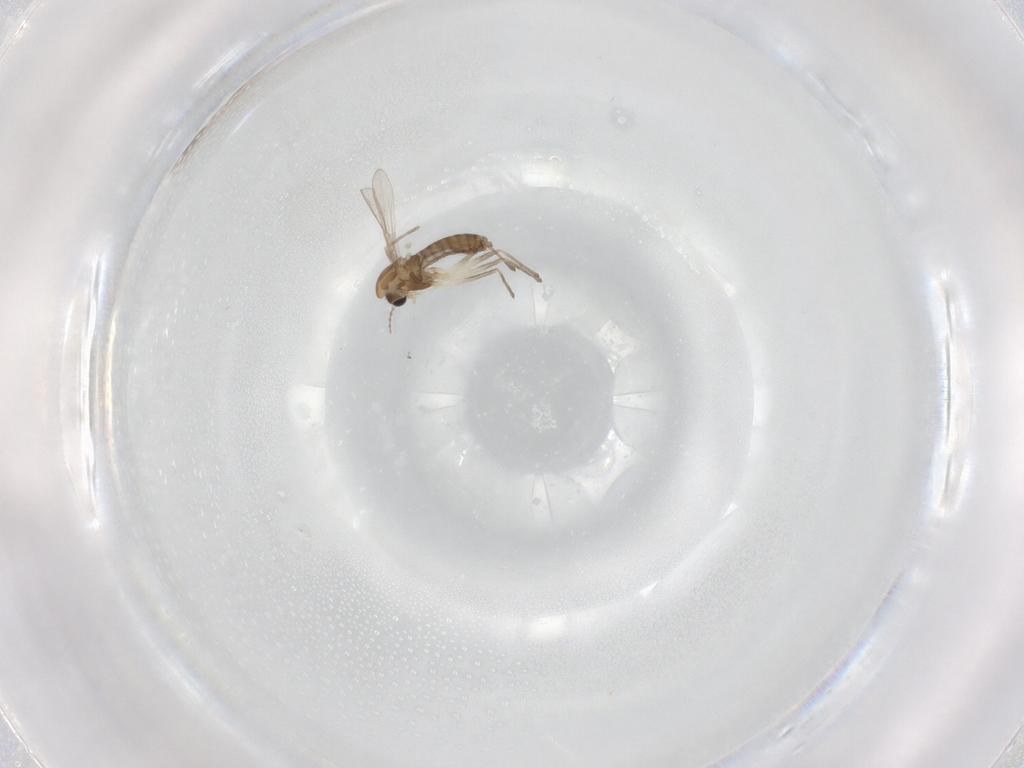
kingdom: Animalia
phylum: Arthropoda
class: Insecta
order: Diptera
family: Chironomidae
